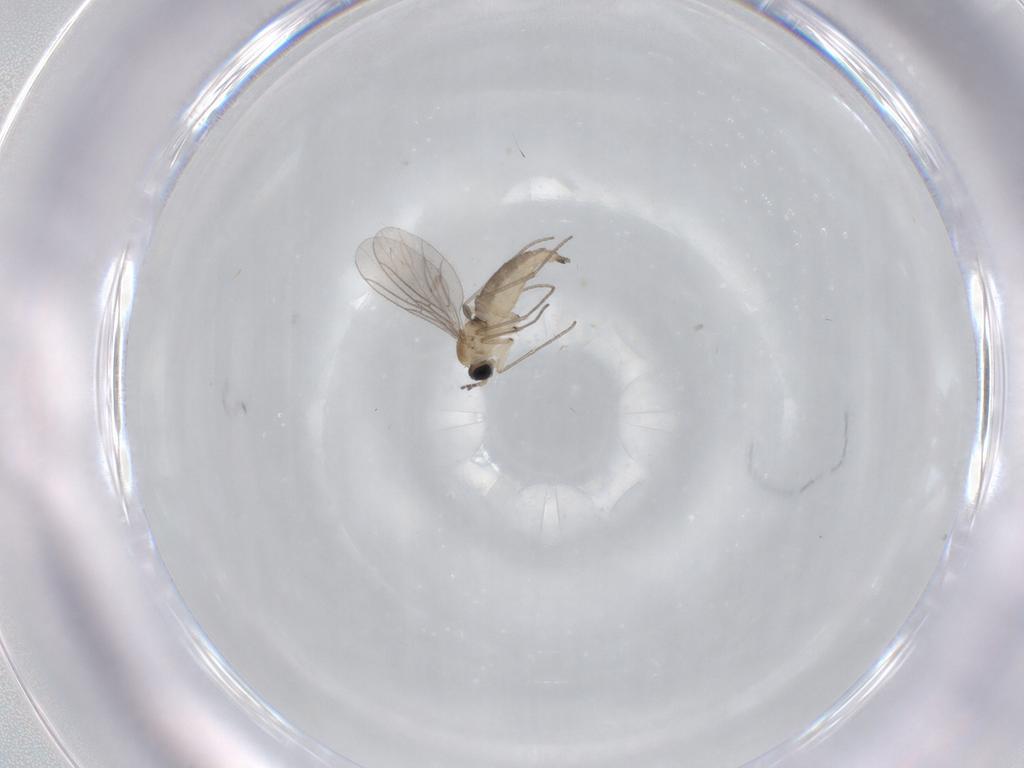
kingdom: Animalia
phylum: Arthropoda
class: Insecta
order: Diptera
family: Sciaridae
